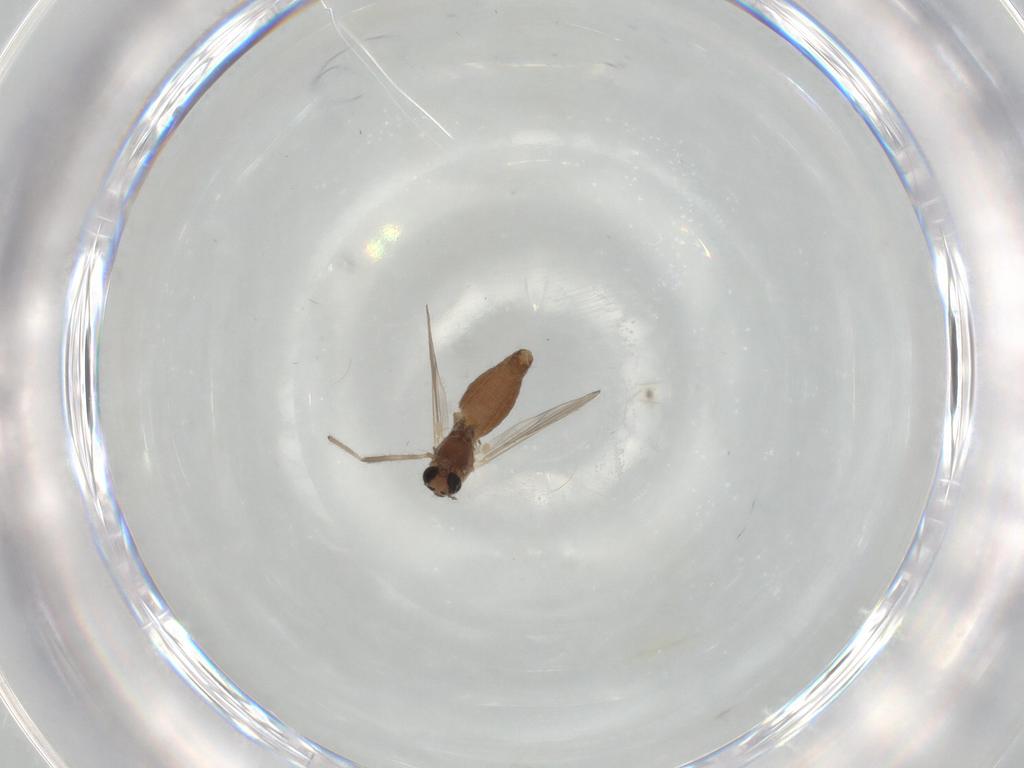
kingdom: Animalia
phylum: Arthropoda
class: Insecta
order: Diptera
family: Chironomidae
